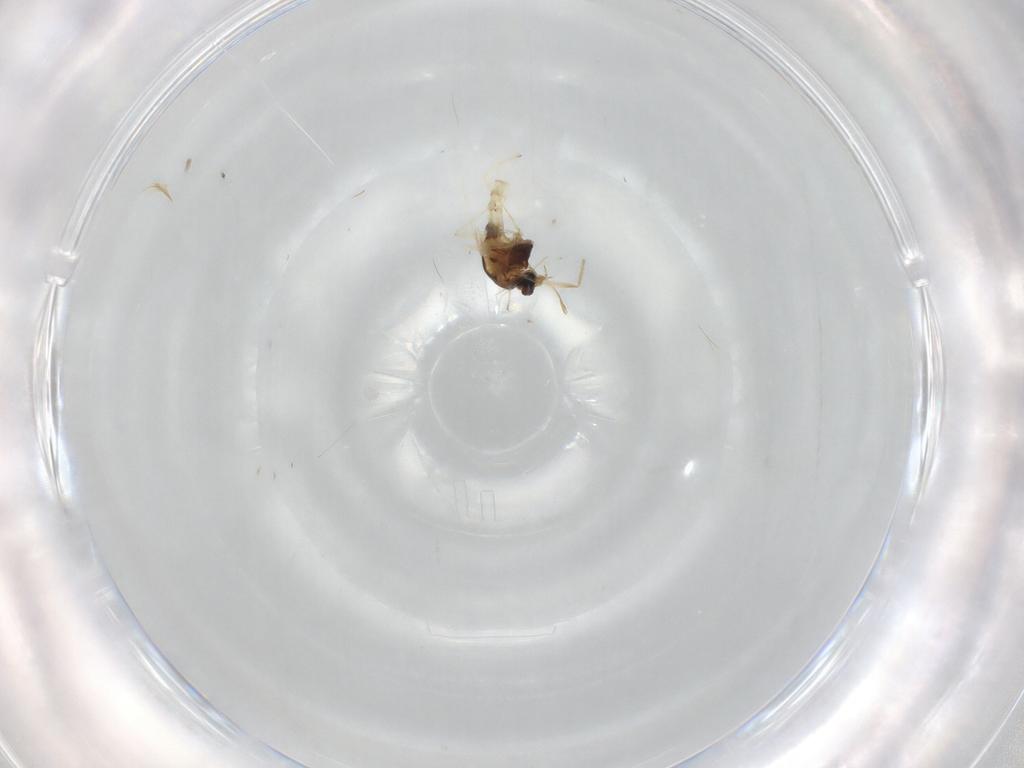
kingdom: Animalia
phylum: Arthropoda
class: Insecta
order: Diptera
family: Chironomidae
